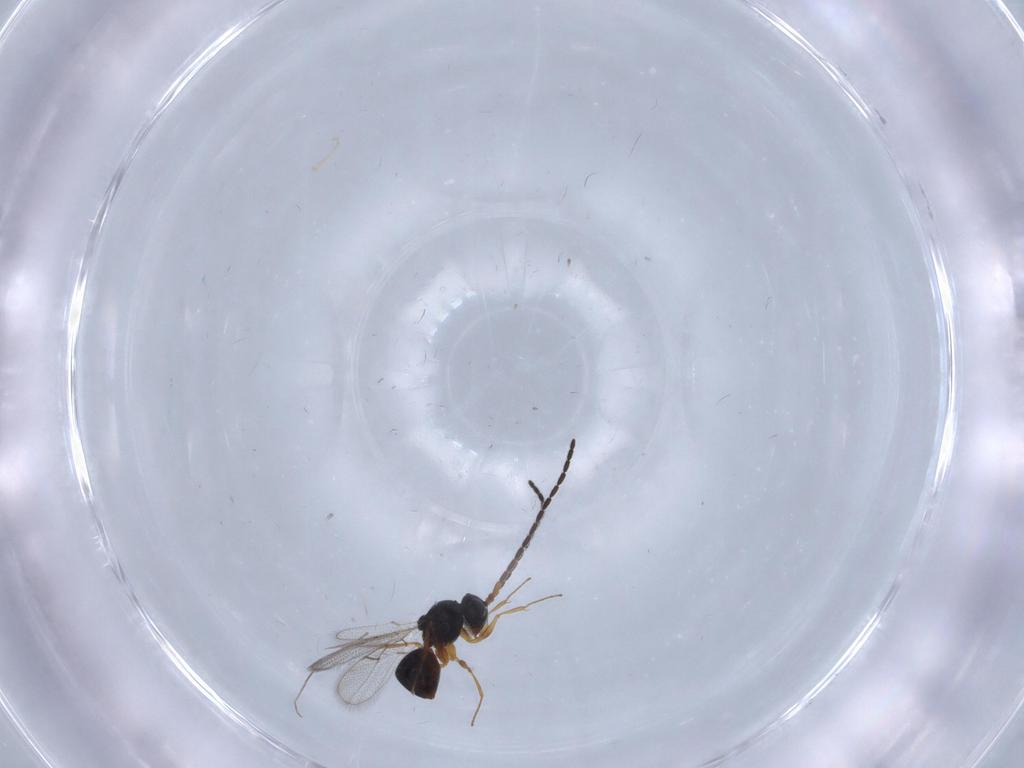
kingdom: Animalia
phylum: Arthropoda
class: Insecta
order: Hymenoptera
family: Figitidae
